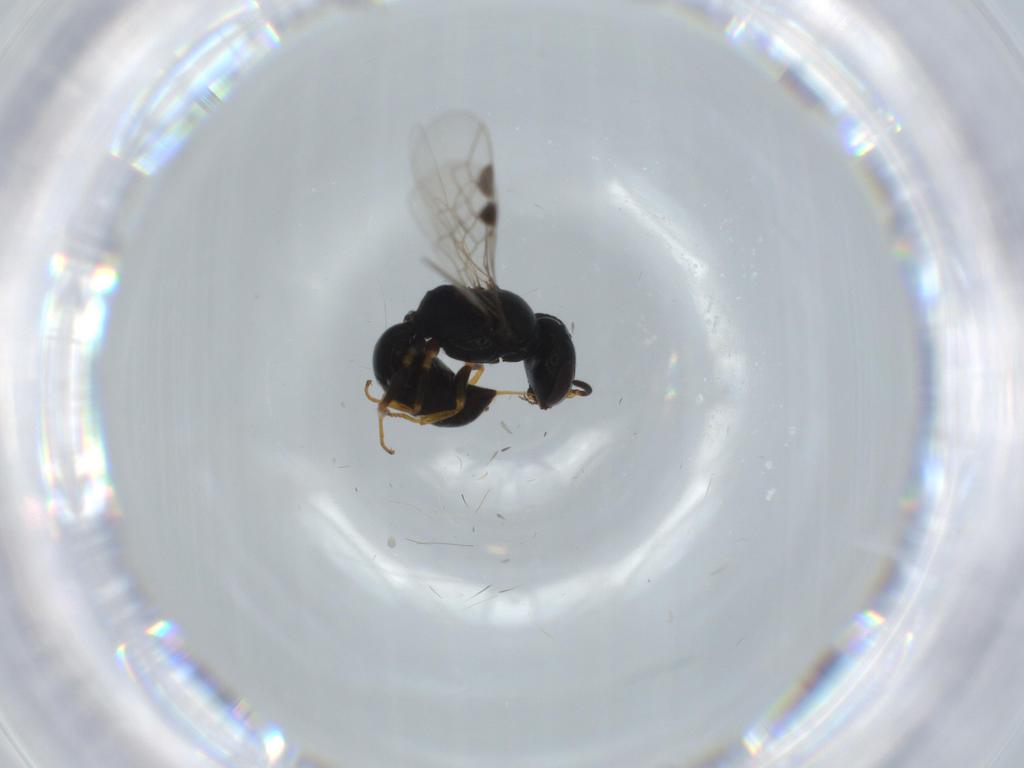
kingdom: Animalia
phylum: Arthropoda
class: Insecta
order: Hymenoptera
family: Pemphredonidae
